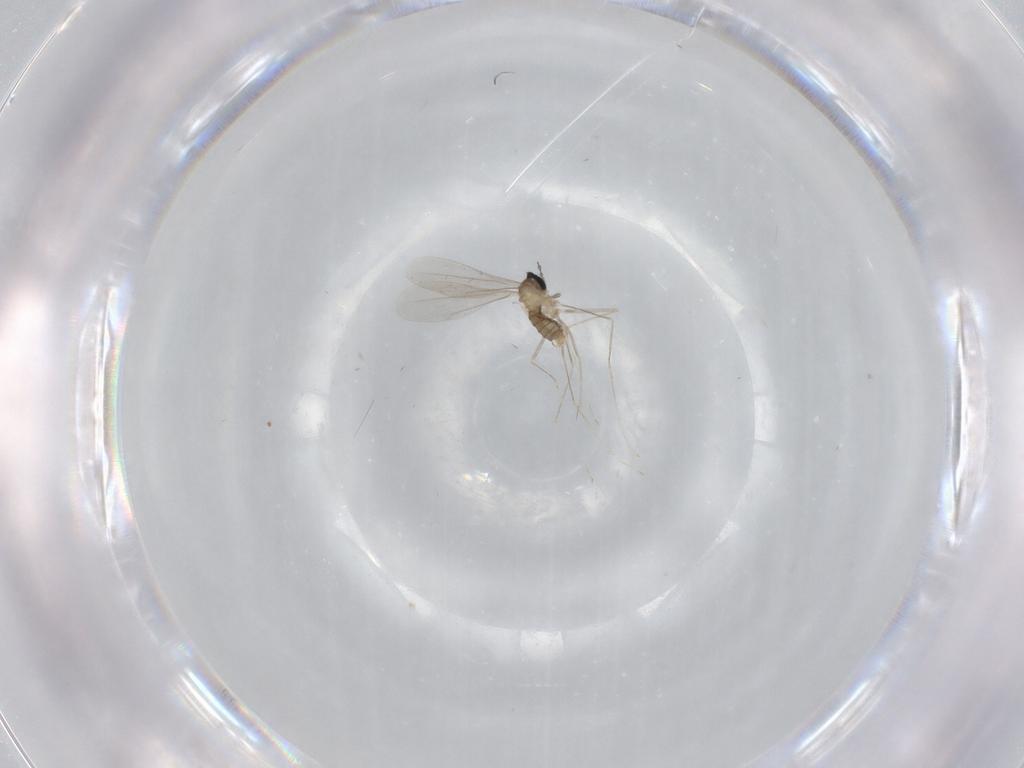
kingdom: Animalia
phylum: Arthropoda
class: Insecta
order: Diptera
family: Cecidomyiidae
